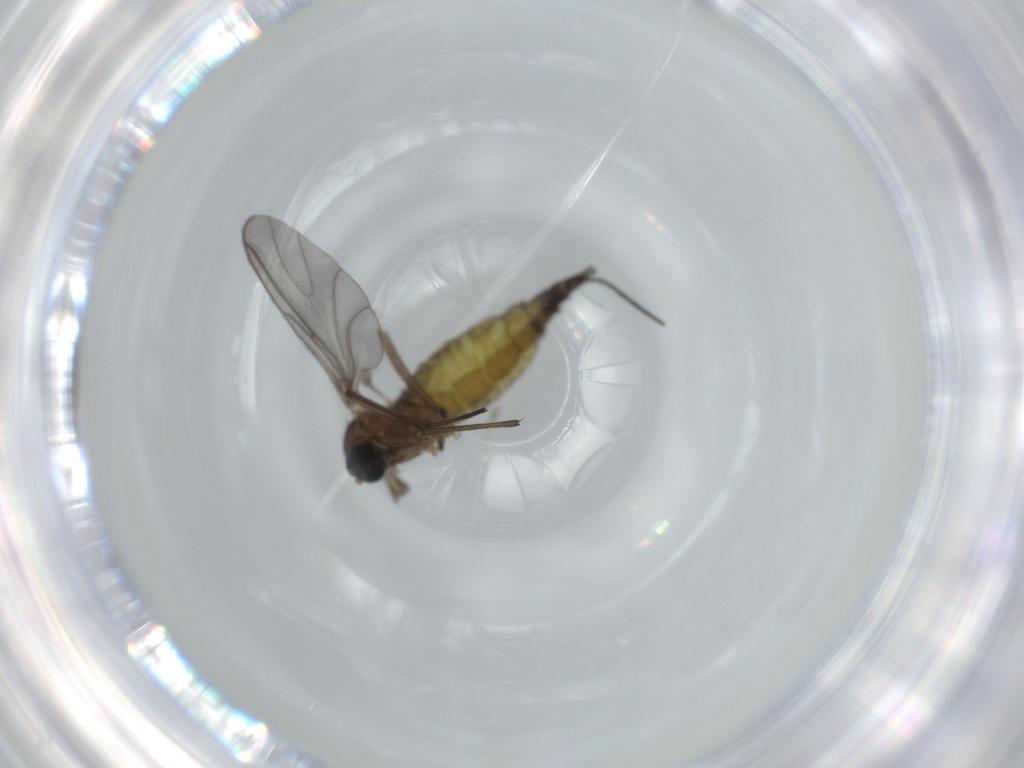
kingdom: Animalia
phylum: Arthropoda
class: Insecta
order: Diptera
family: Sciaridae
